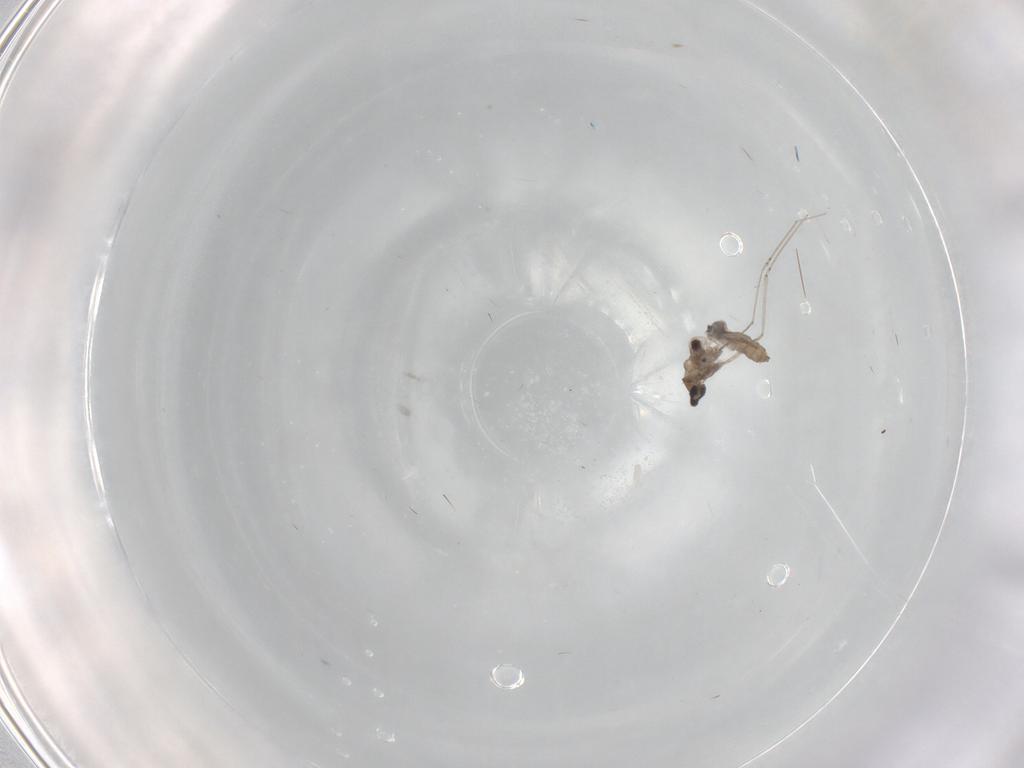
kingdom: Animalia
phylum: Arthropoda
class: Insecta
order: Diptera
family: Cecidomyiidae
